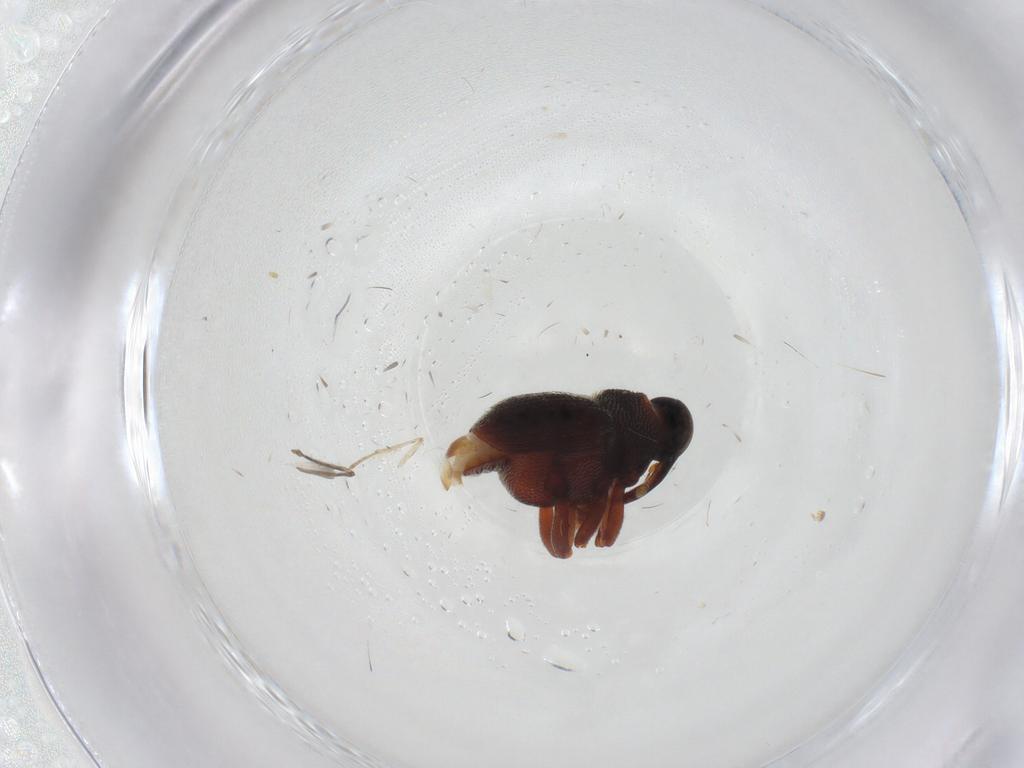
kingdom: Animalia
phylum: Arthropoda
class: Insecta
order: Coleoptera
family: Curculionidae
